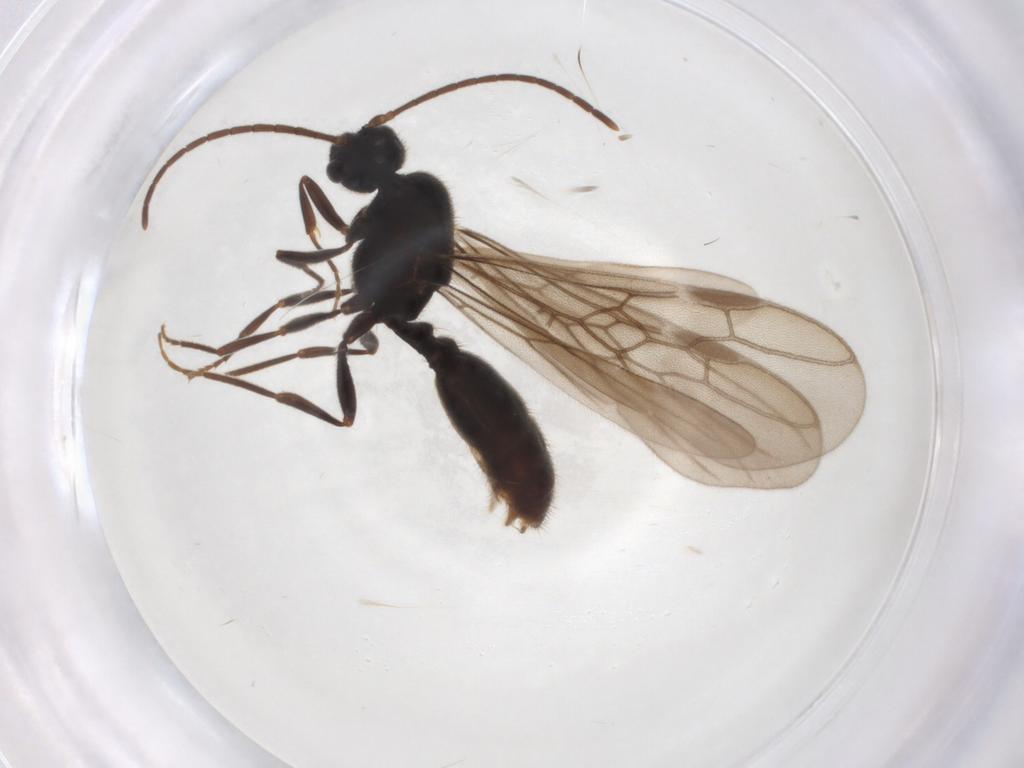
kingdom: Animalia
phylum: Arthropoda
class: Insecta
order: Hymenoptera
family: Formicidae
